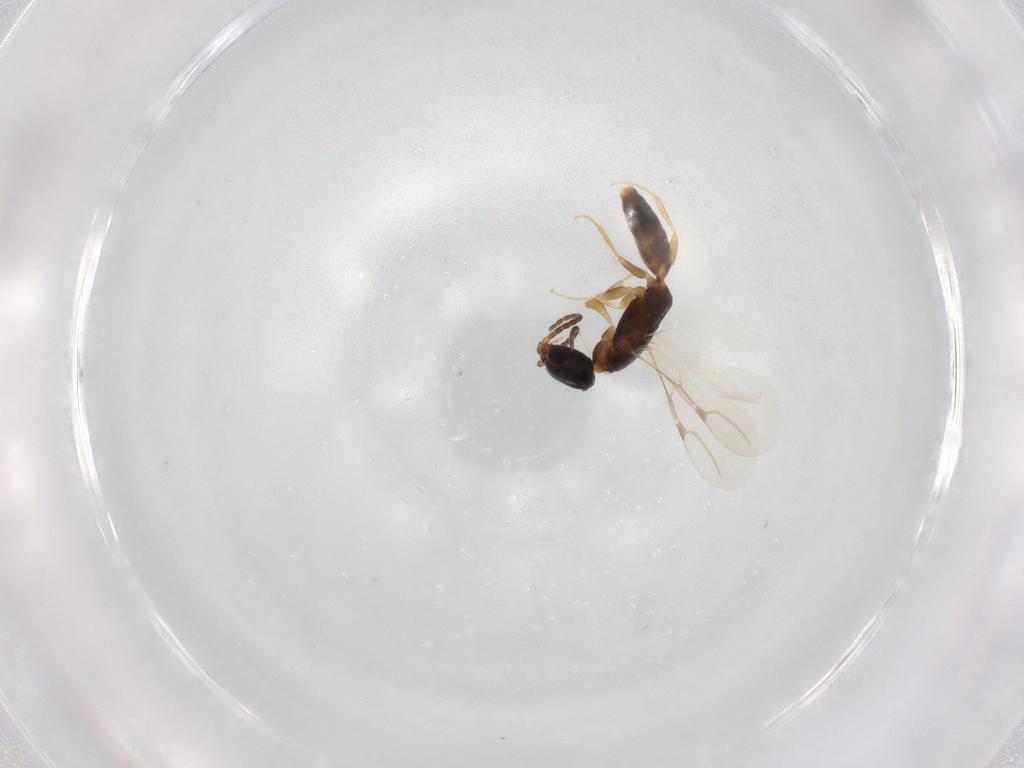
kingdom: Animalia
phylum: Arthropoda
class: Insecta
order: Hymenoptera
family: Bethylidae
